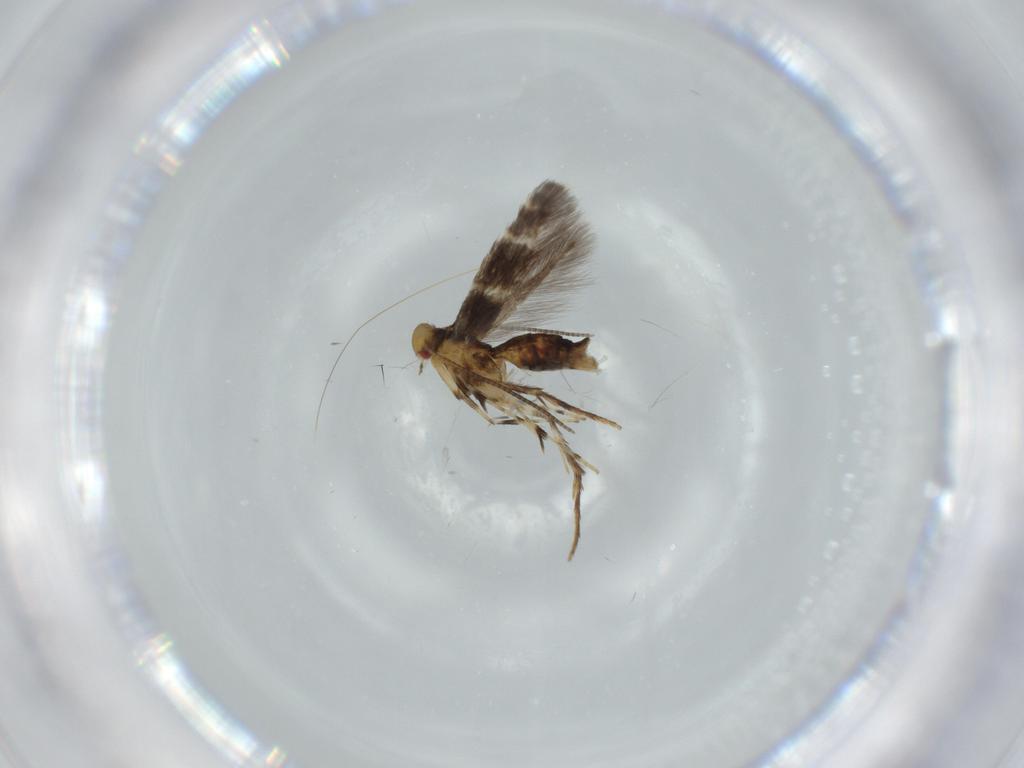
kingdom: Animalia
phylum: Arthropoda
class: Insecta
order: Lepidoptera
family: Gracillariidae
